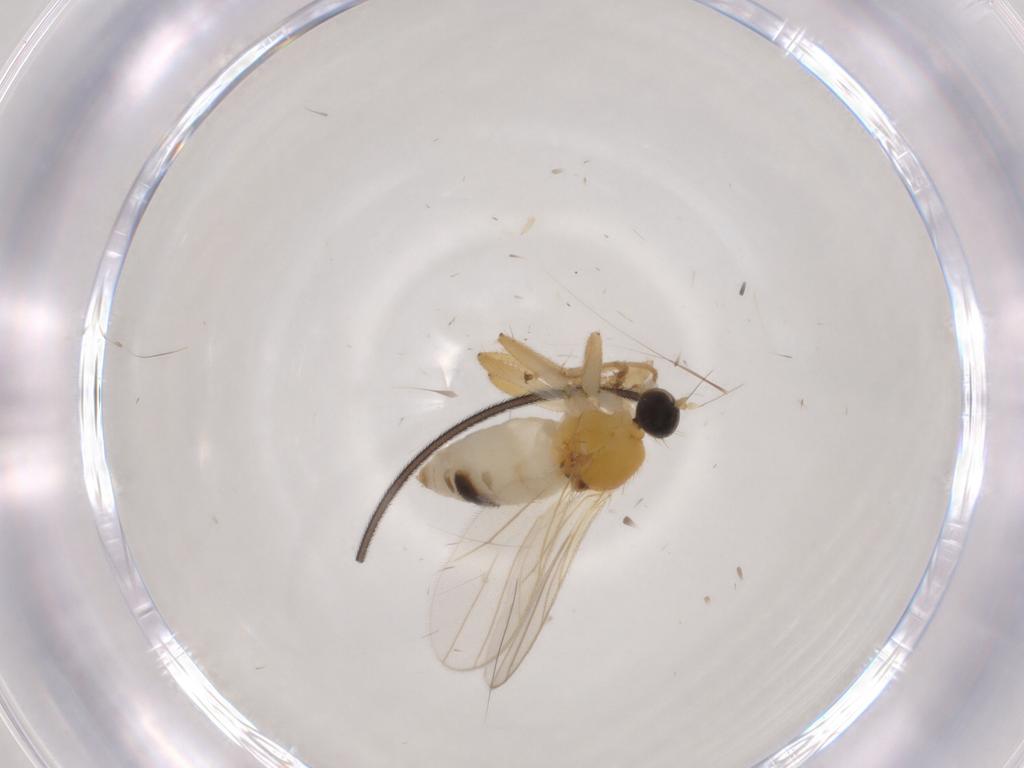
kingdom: Animalia
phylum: Arthropoda
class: Insecta
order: Diptera
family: Hybotidae
